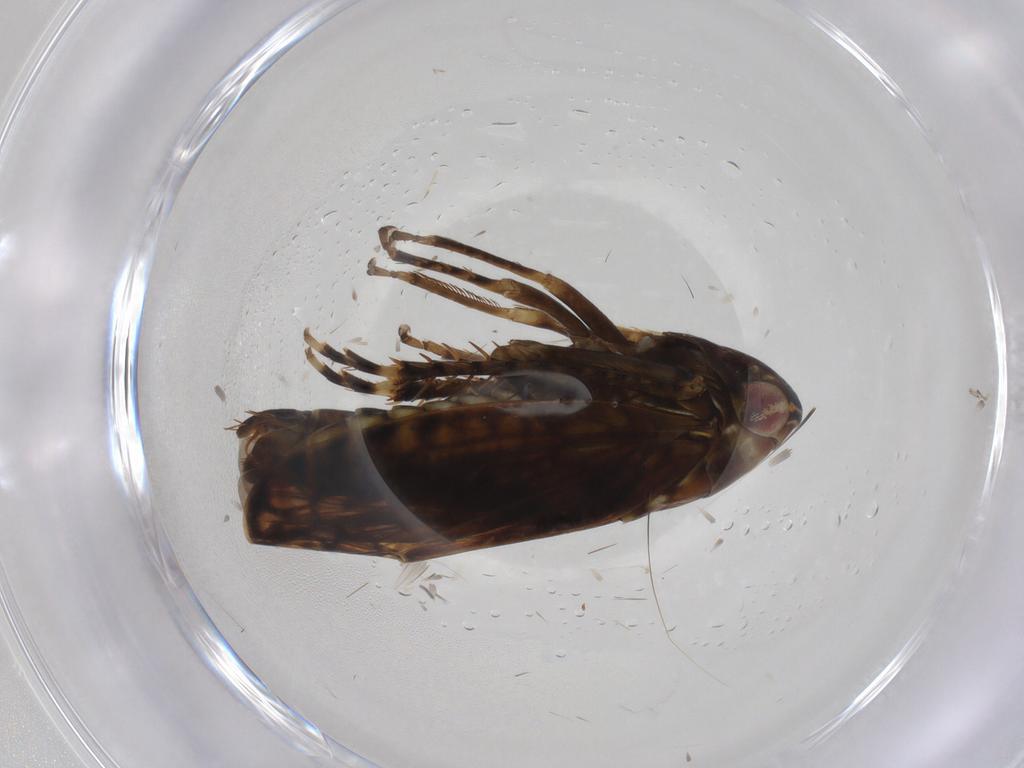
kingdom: Animalia
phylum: Arthropoda
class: Insecta
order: Hemiptera
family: Cicadellidae
